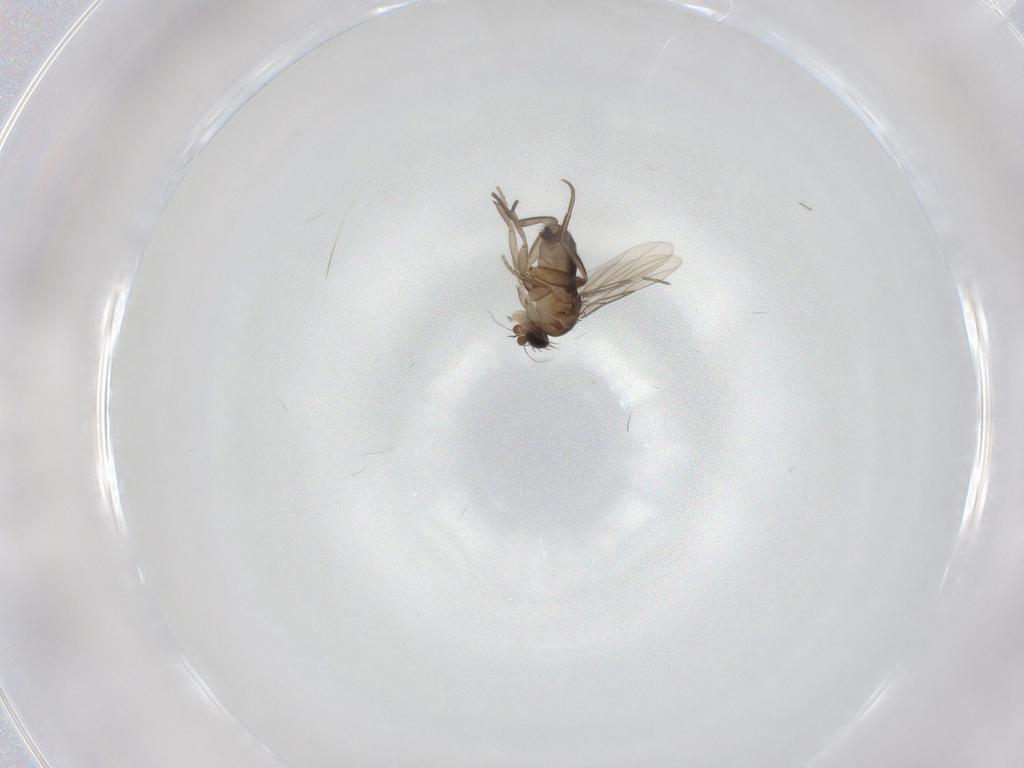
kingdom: Animalia
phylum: Arthropoda
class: Insecta
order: Diptera
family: Phoridae
